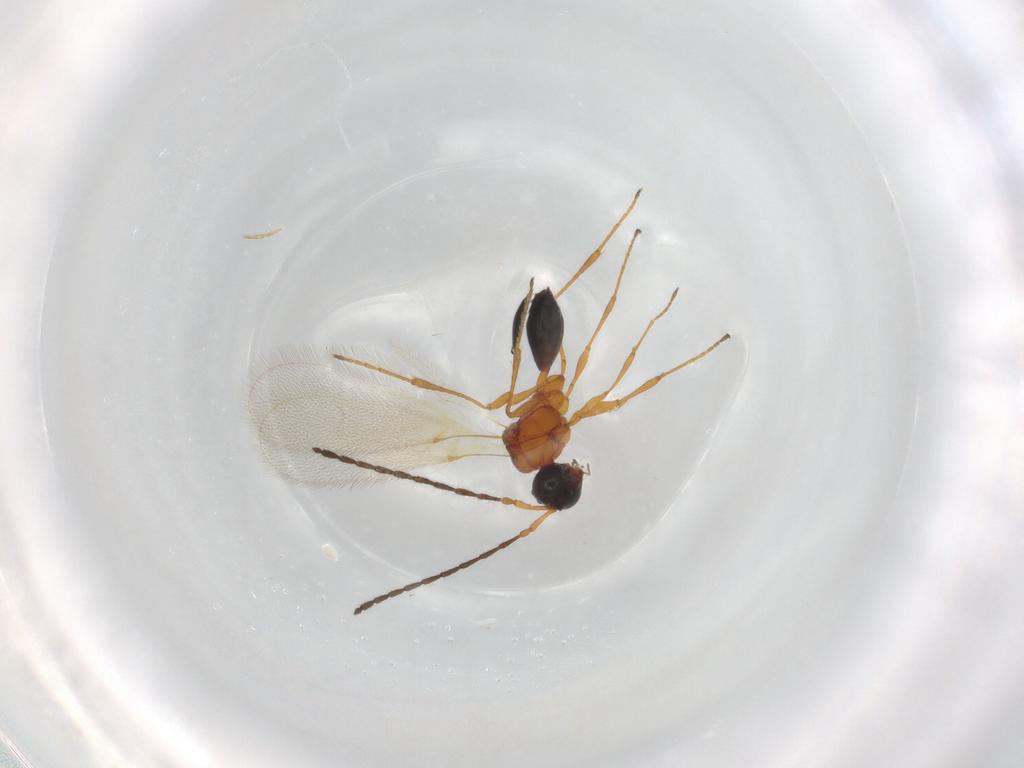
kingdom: Animalia
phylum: Arthropoda
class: Insecta
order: Hymenoptera
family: Diapriidae
